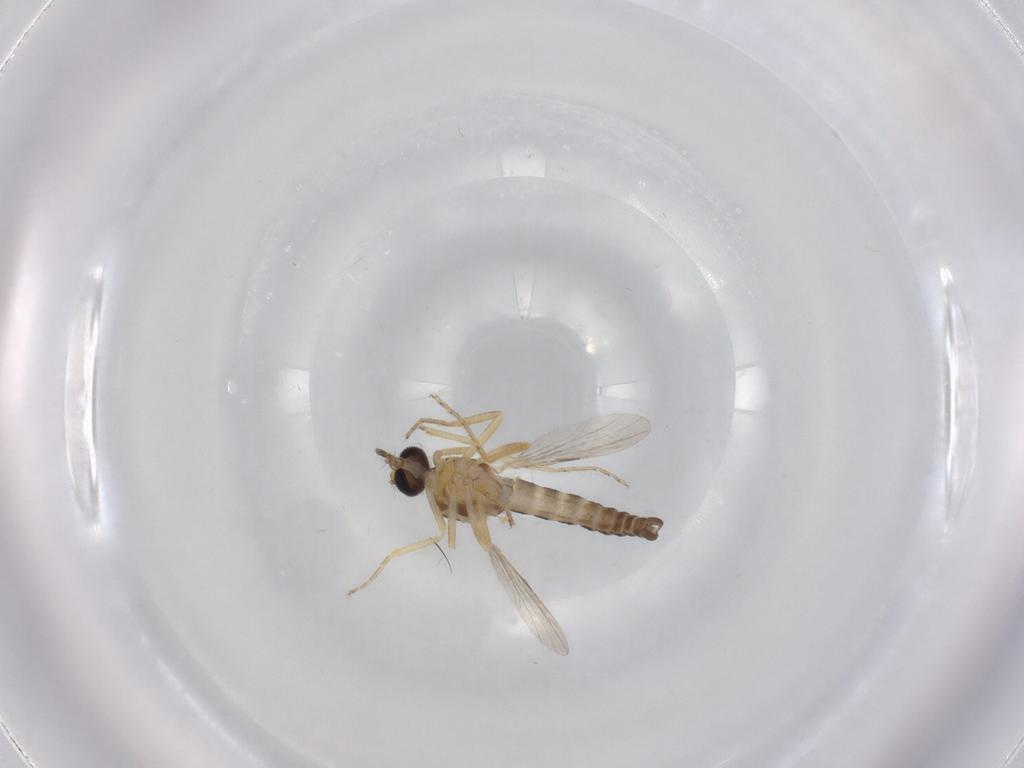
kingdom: Animalia
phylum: Arthropoda
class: Insecta
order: Diptera
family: Ceratopogonidae
